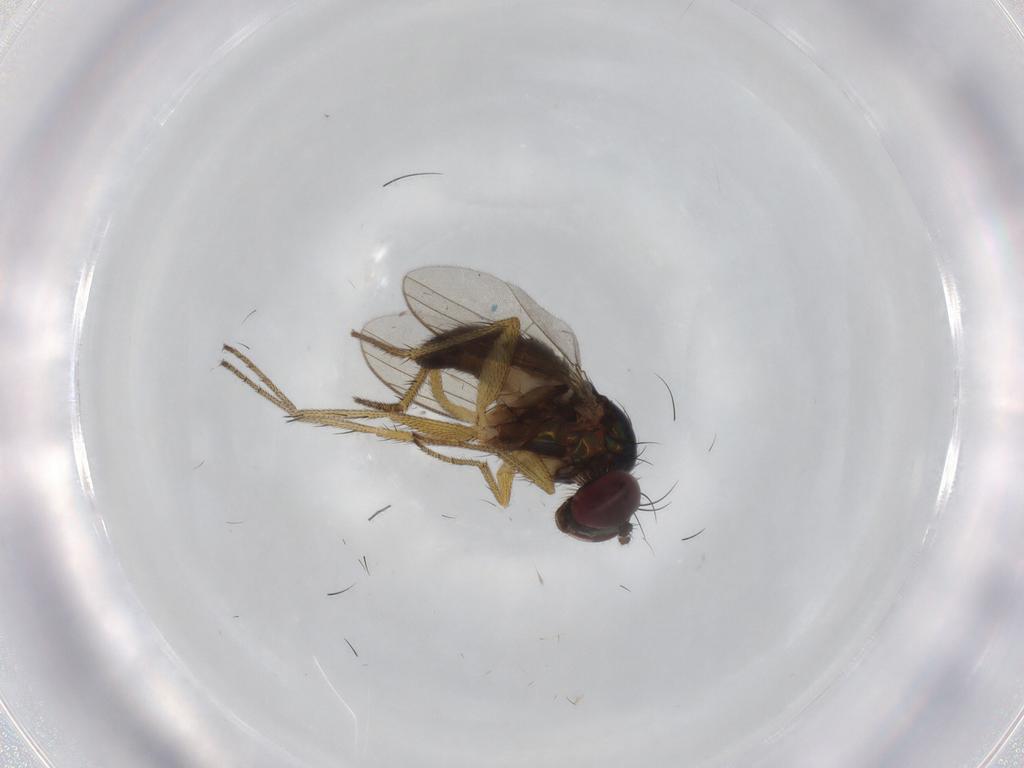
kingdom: Animalia
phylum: Arthropoda
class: Insecta
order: Diptera
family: Dolichopodidae
